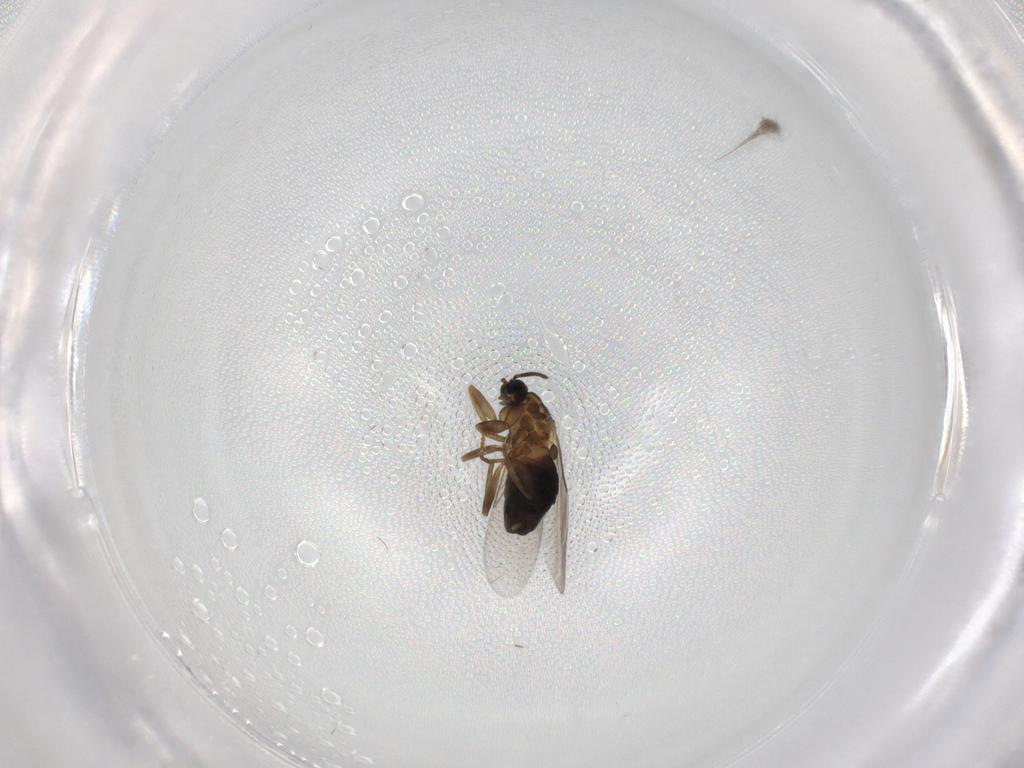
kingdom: Animalia
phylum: Arthropoda
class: Insecta
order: Diptera
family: Scatopsidae
